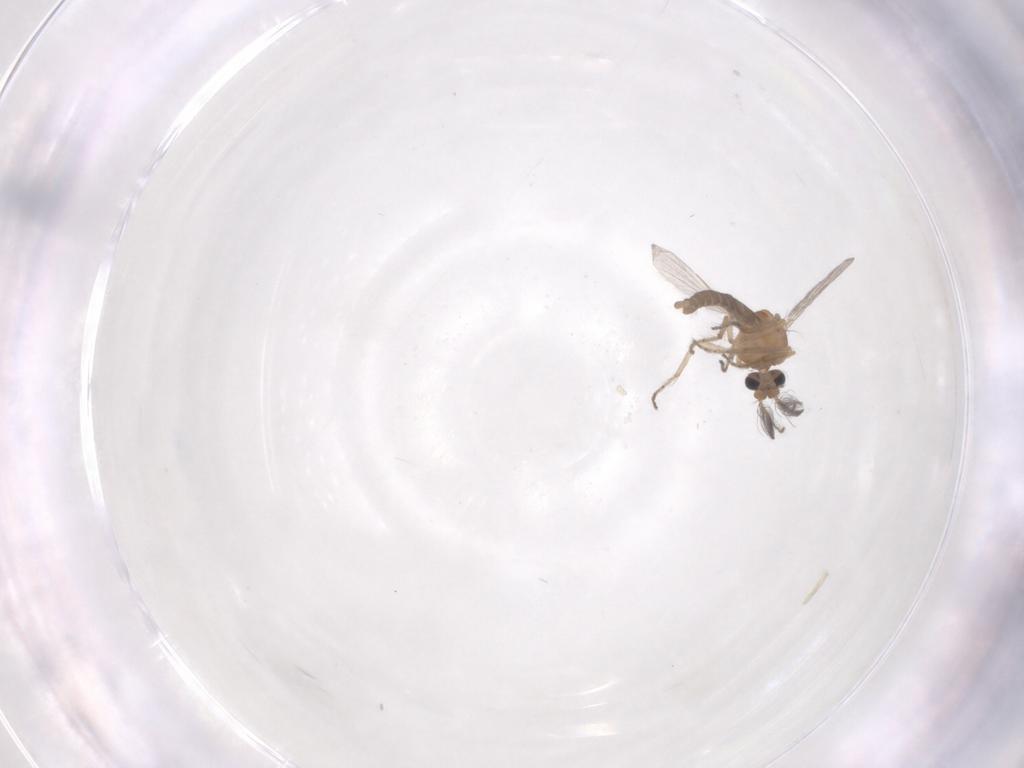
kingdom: Animalia
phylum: Arthropoda
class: Insecta
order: Diptera
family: Ceratopogonidae
